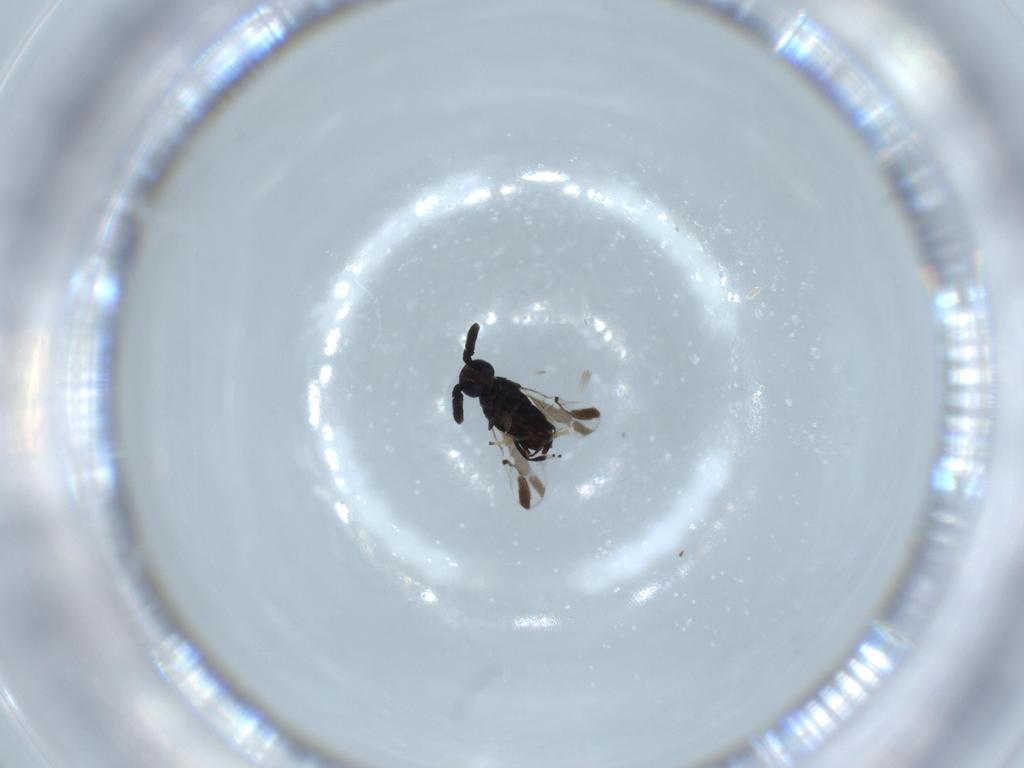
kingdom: Animalia
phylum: Arthropoda
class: Insecta
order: Hymenoptera
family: Encyrtidae
